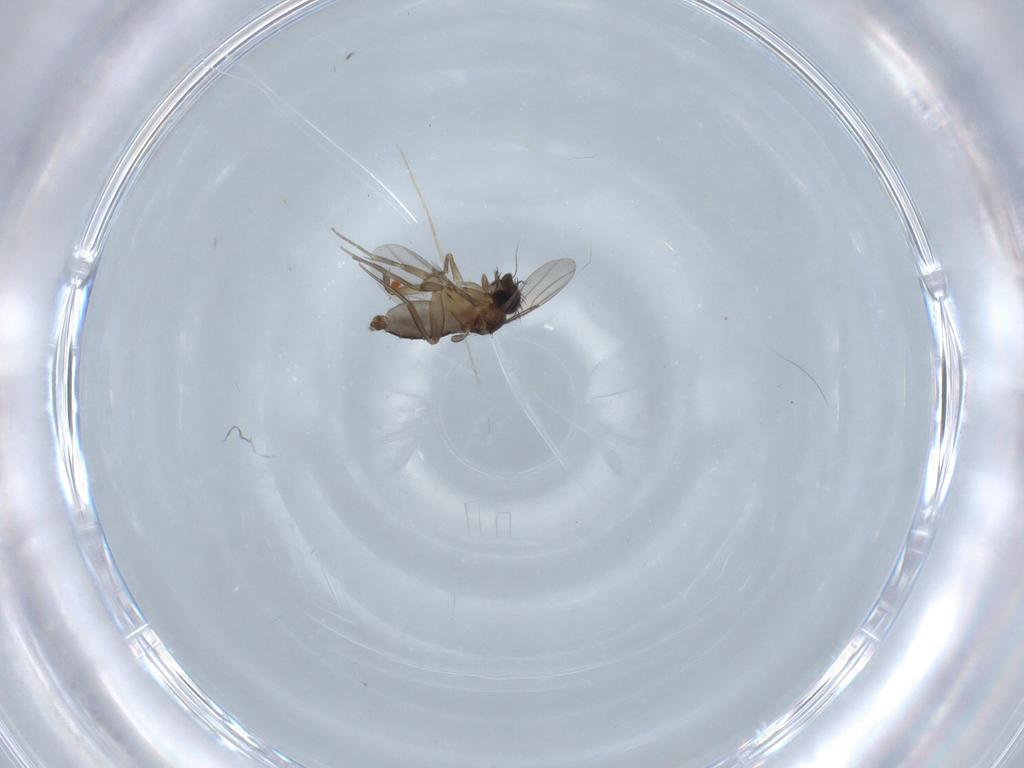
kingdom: Animalia
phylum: Arthropoda
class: Insecta
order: Diptera
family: Phoridae
